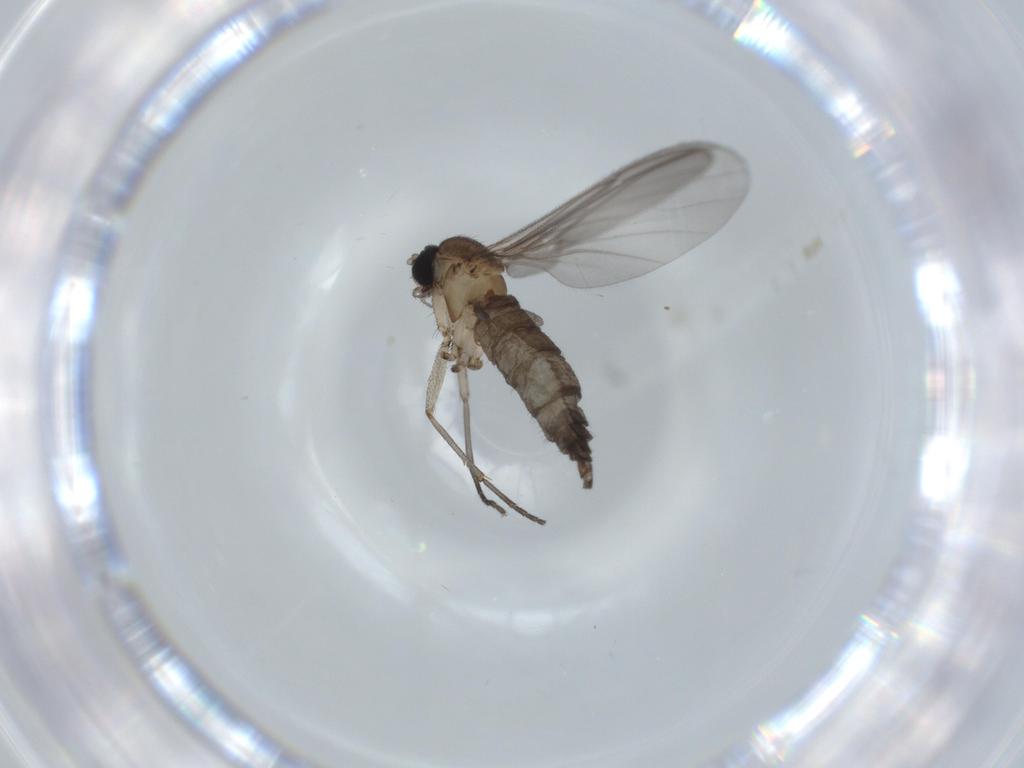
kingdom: Animalia
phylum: Arthropoda
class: Insecta
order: Diptera
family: Sciaridae
